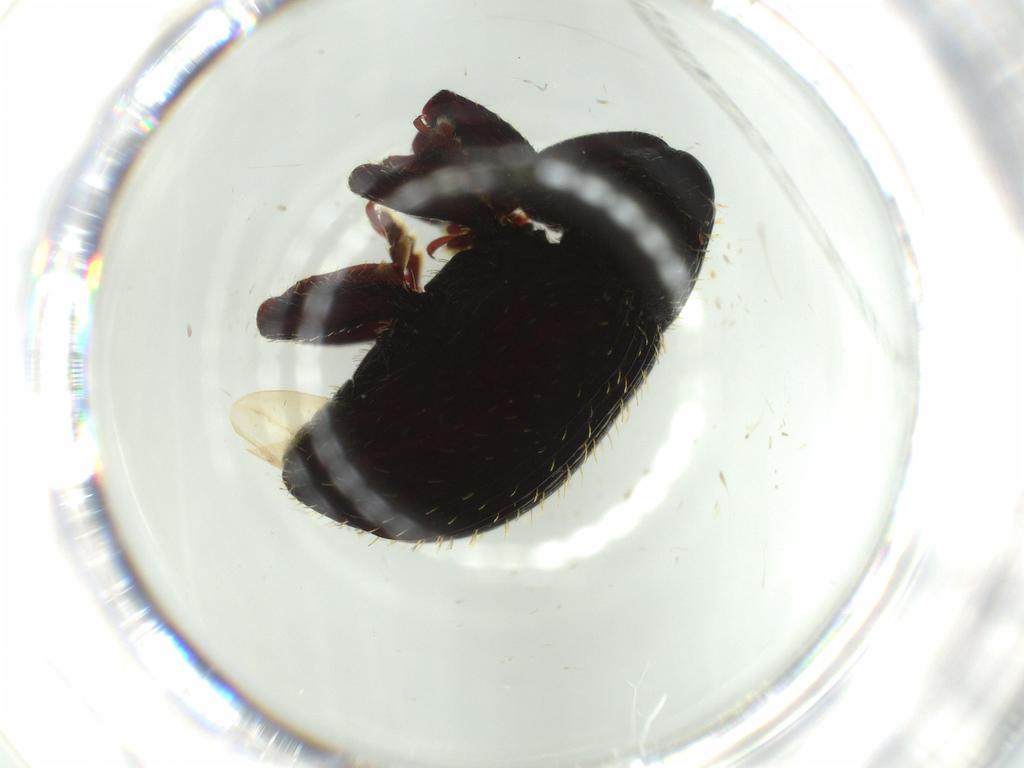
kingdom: Animalia
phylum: Arthropoda
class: Insecta
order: Coleoptera
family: Curculionidae
